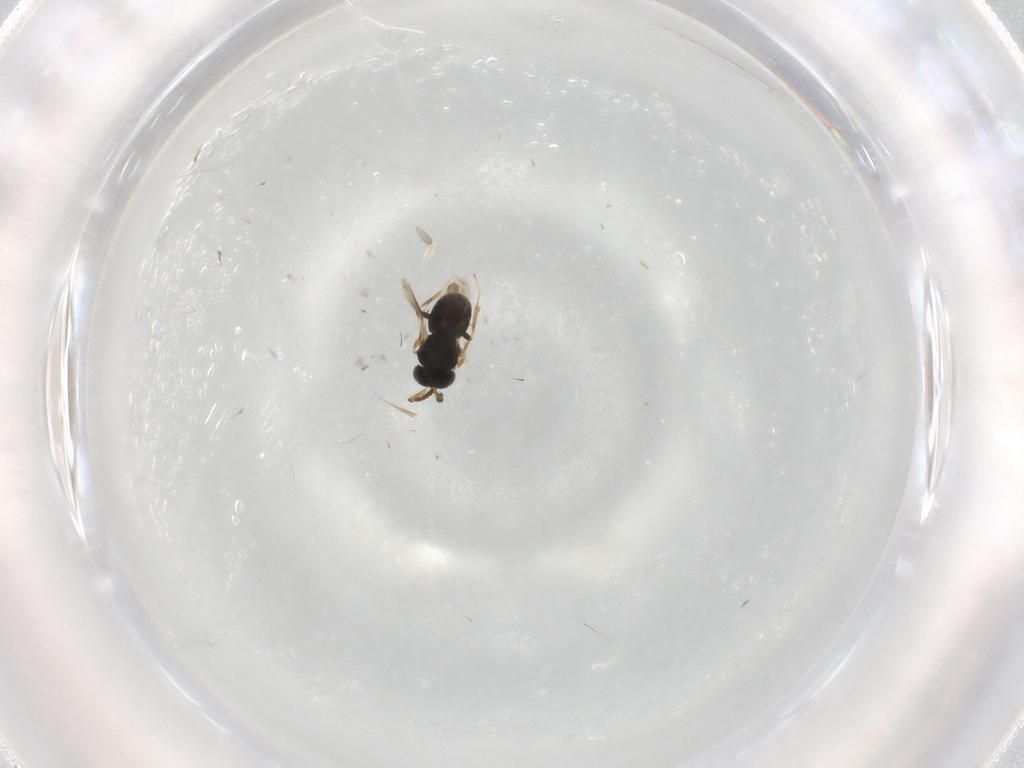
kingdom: Animalia
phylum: Arthropoda
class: Insecta
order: Hymenoptera
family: Scelionidae
